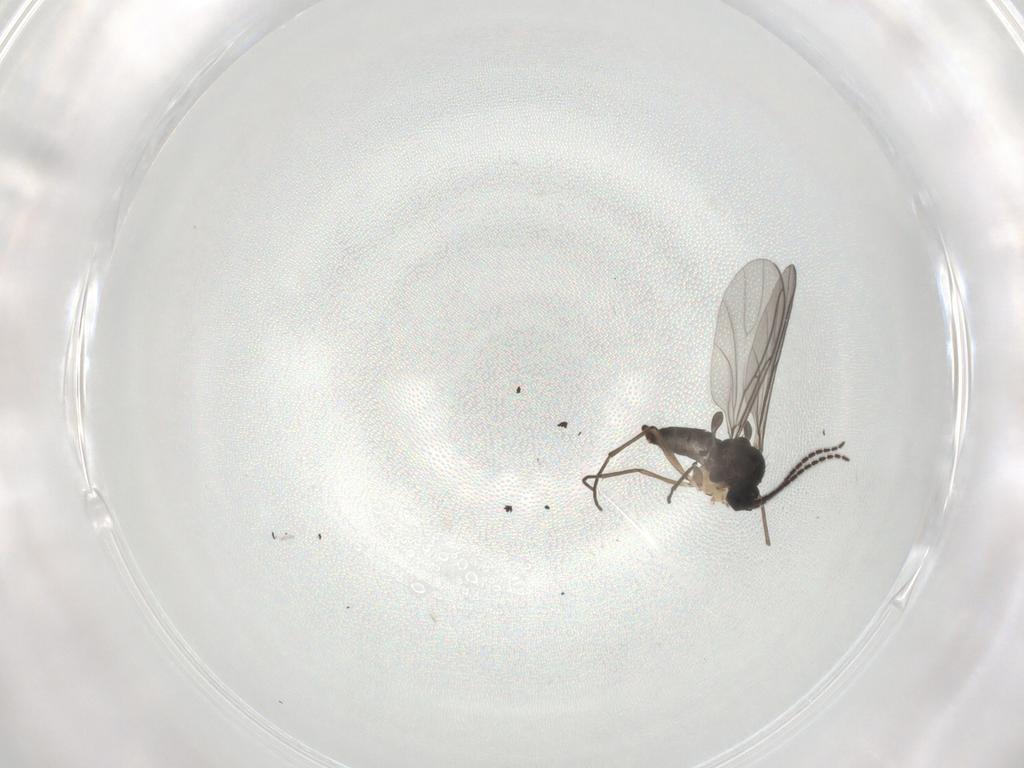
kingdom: Animalia
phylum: Arthropoda
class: Insecta
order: Diptera
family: Sciaridae
